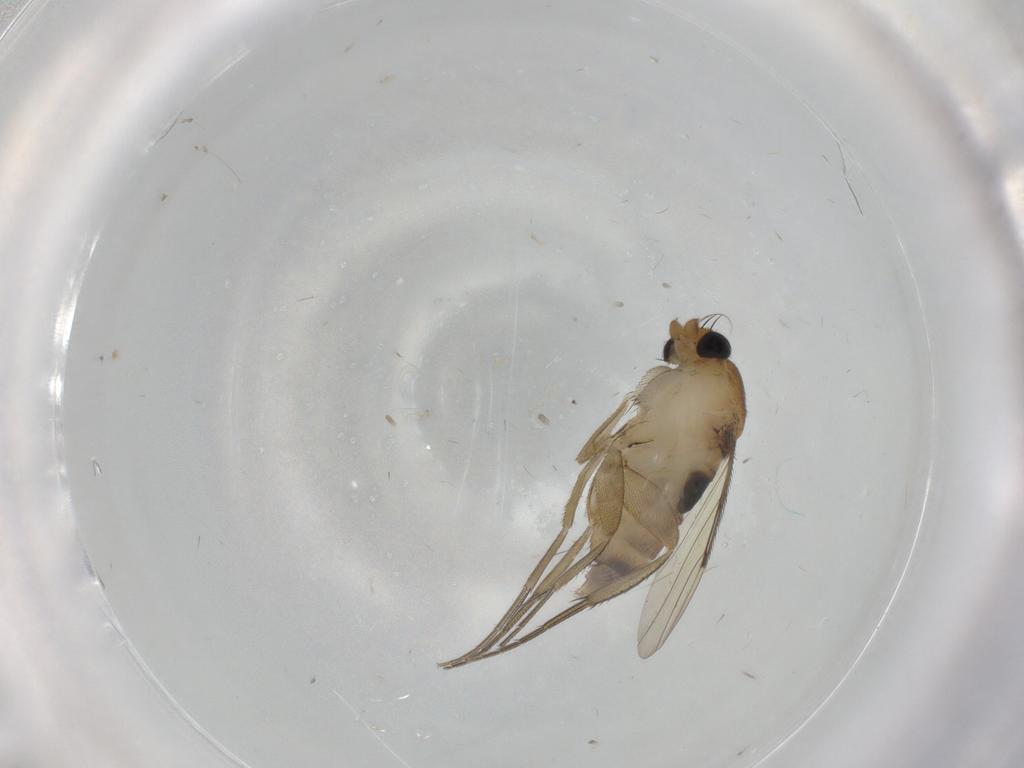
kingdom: Animalia
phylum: Arthropoda
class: Insecta
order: Diptera
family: Phoridae
